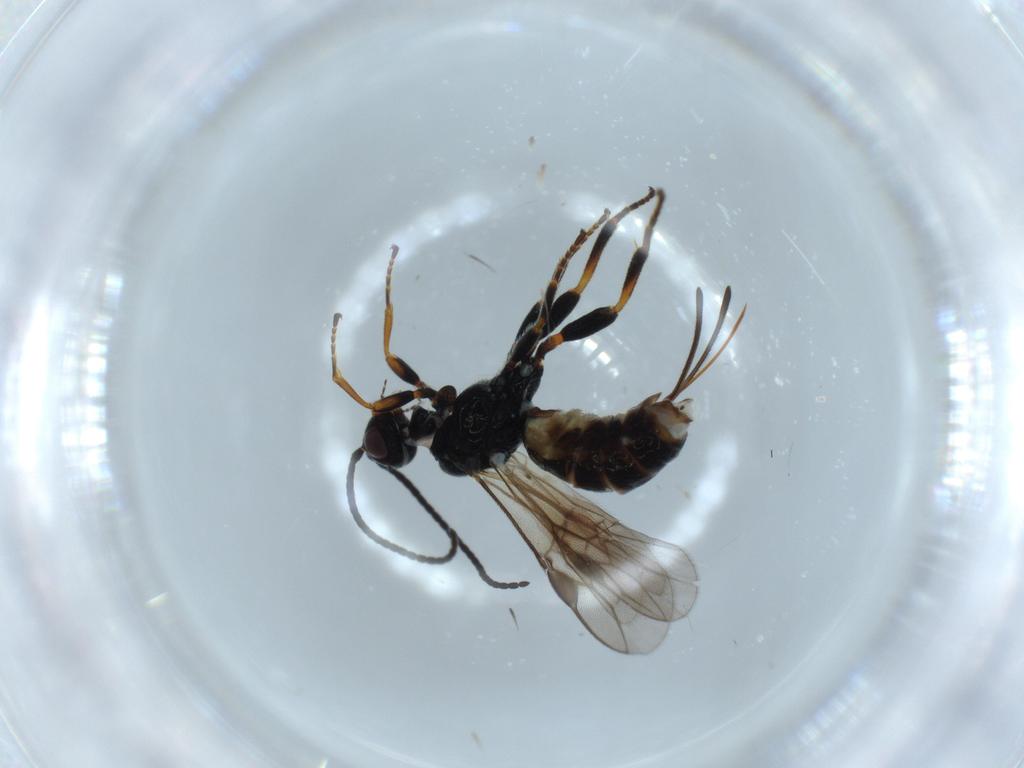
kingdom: Animalia
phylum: Arthropoda
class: Insecta
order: Hymenoptera
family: Braconidae
